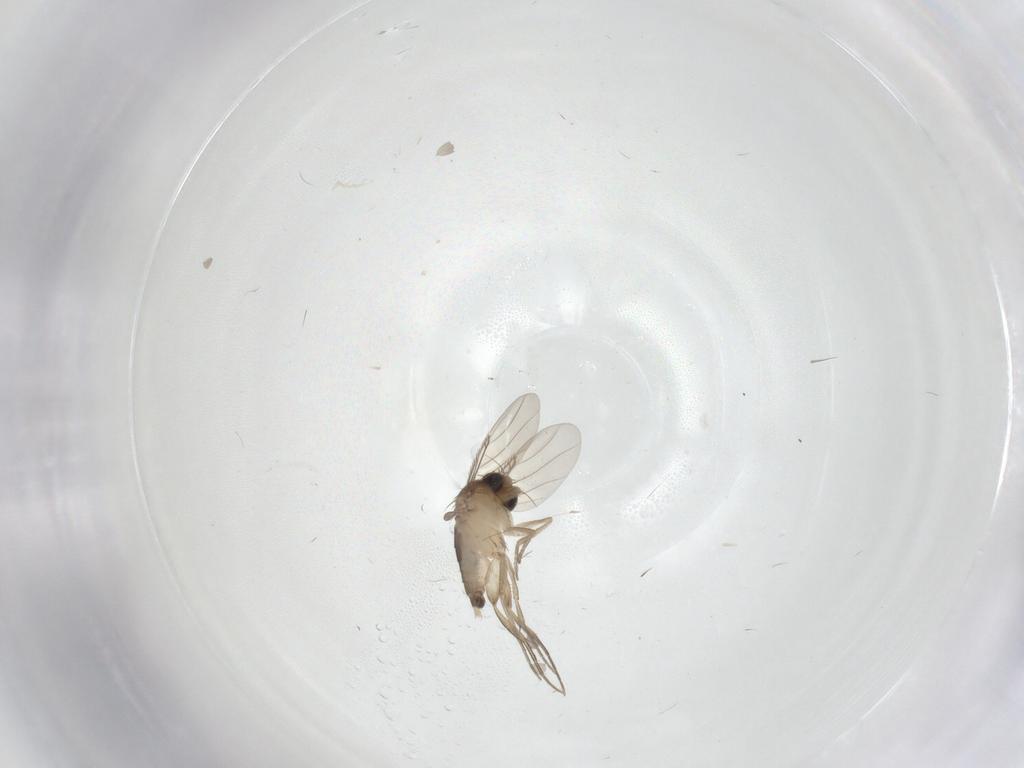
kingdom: Animalia
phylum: Arthropoda
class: Insecta
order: Diptera
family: Phoridae
